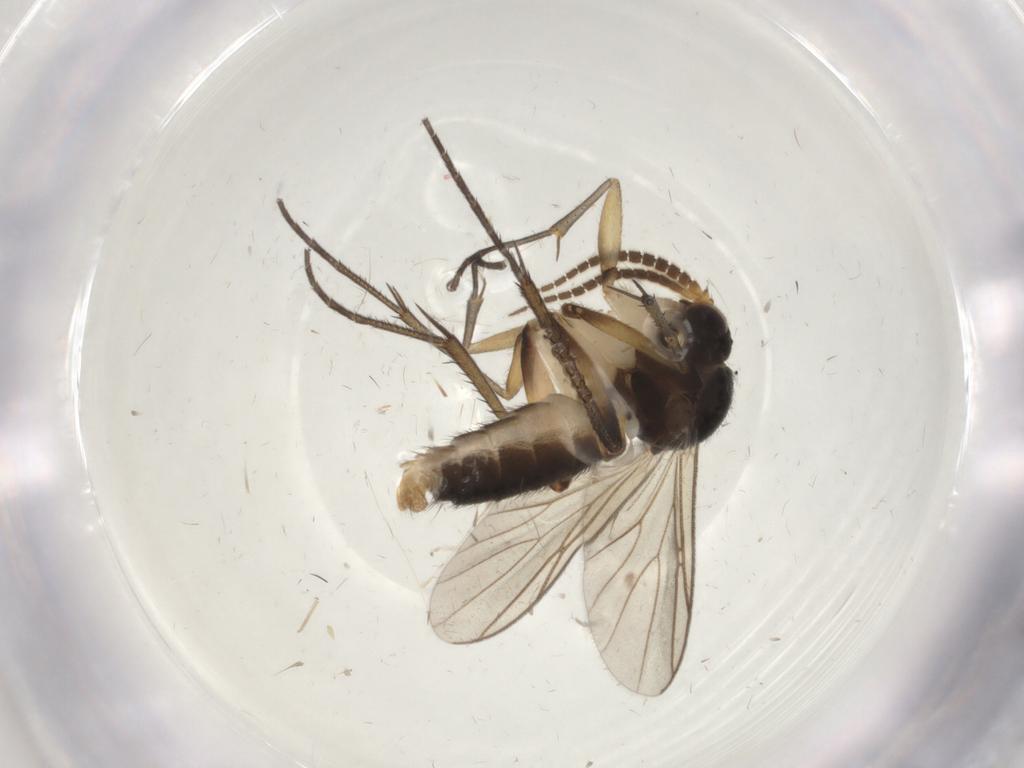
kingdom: Animalia
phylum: Arthropoda
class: Insecta
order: Diptera
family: Mycetophilidae
